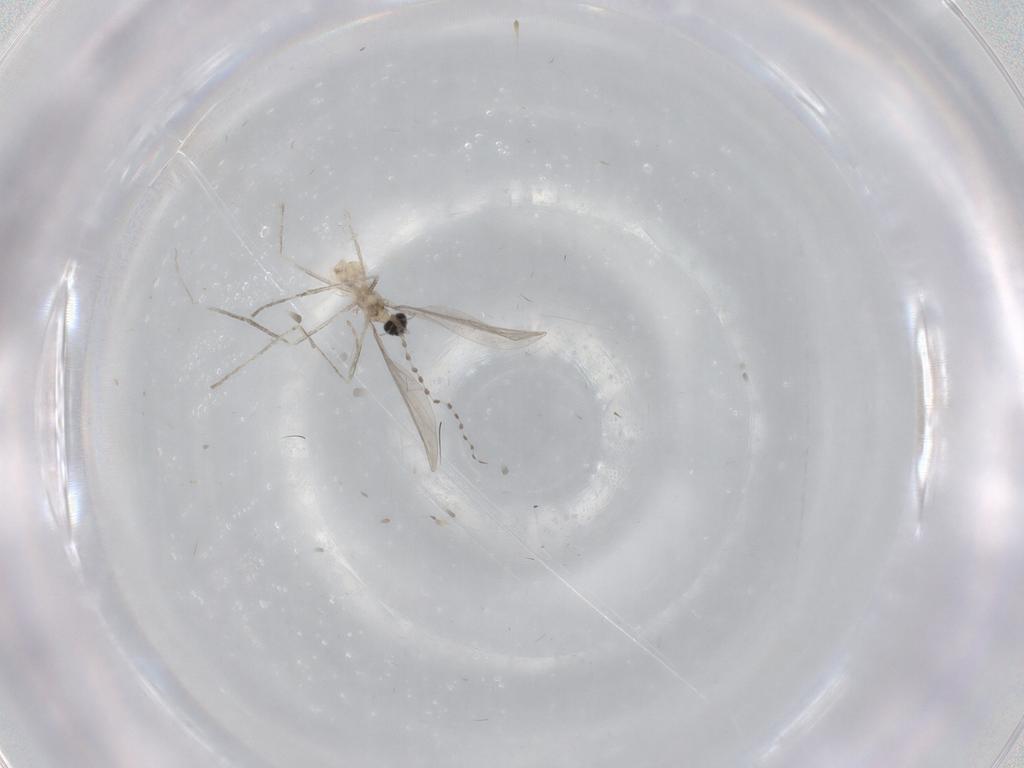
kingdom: Animalia
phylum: Arthropoda
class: Insecta
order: Diptera
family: Cecidomyiidae
